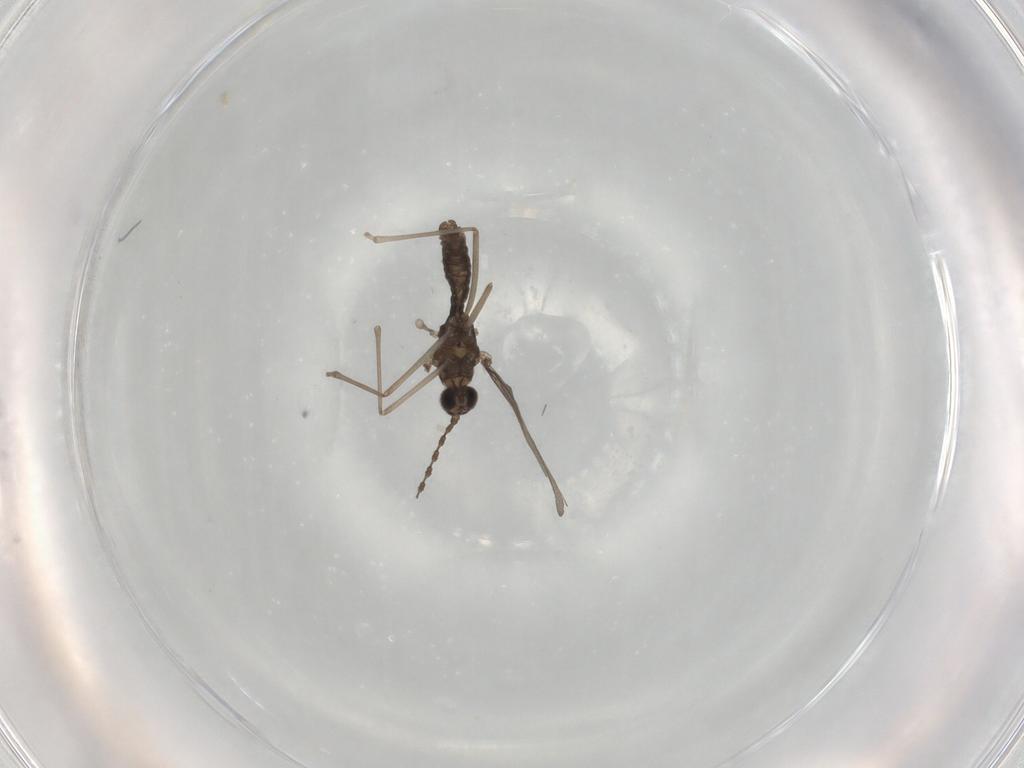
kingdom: Animalia
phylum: Arthropoda
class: Insecta
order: Diptera
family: Cecidomyiidae
